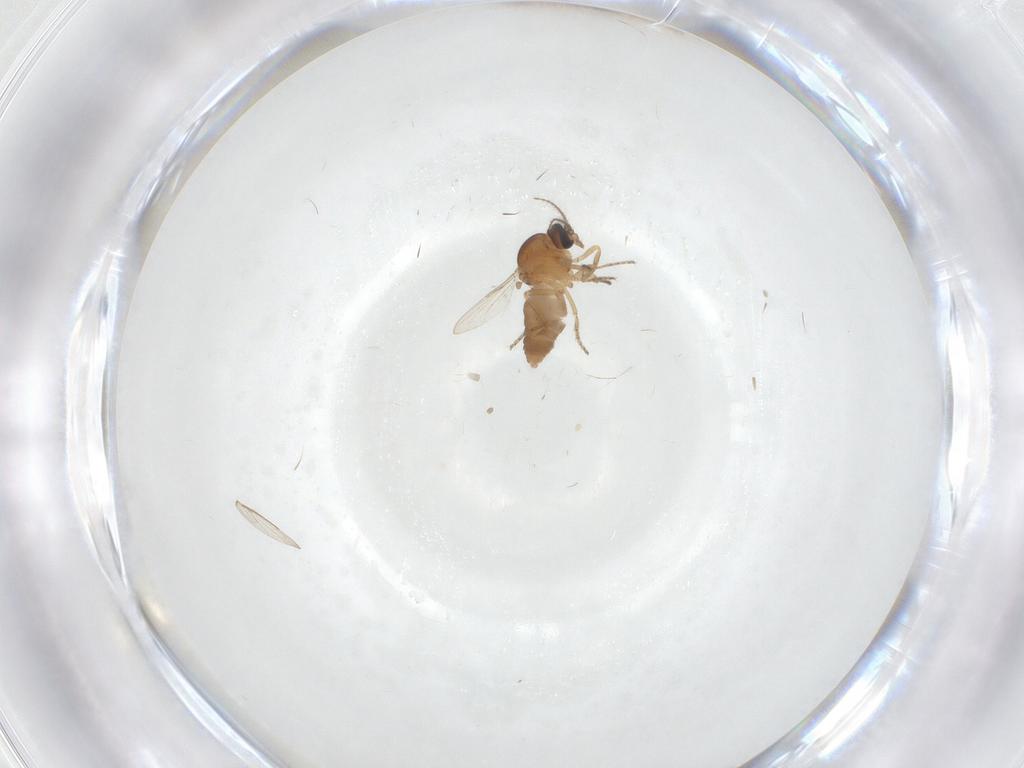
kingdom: Animalia
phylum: Arthropoda
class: Insecta
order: Diptera
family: Ceratopogonidae
